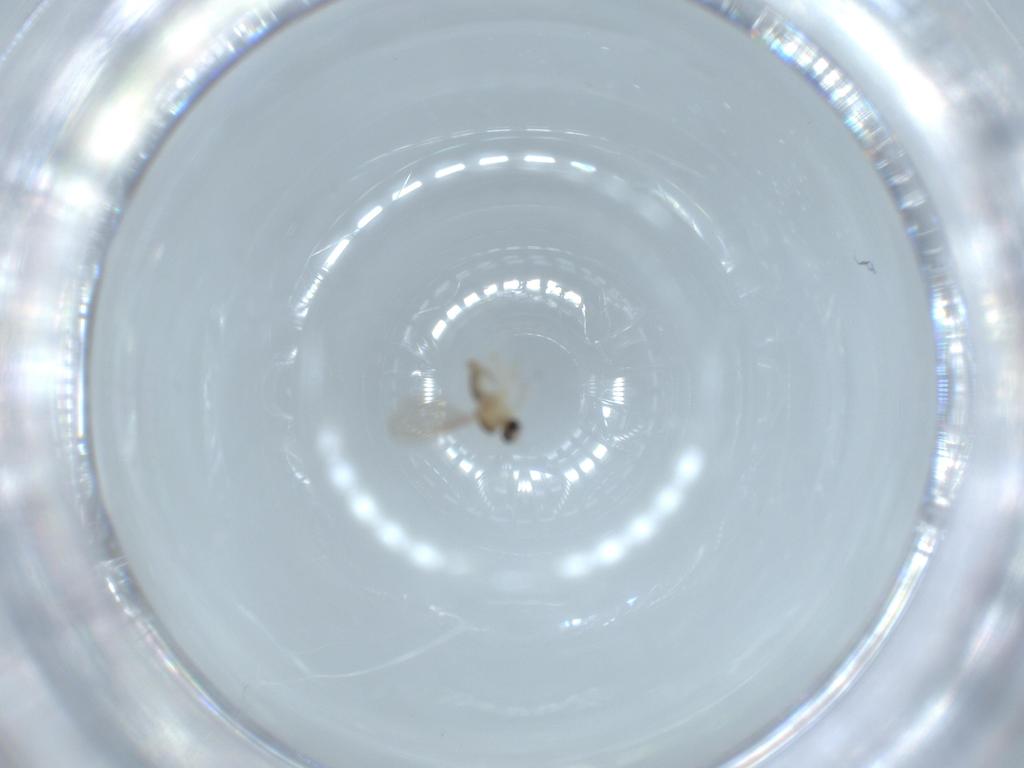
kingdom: Animalia
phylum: Arthropoda
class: Insecta
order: Diptera
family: Cecidomyiidae
